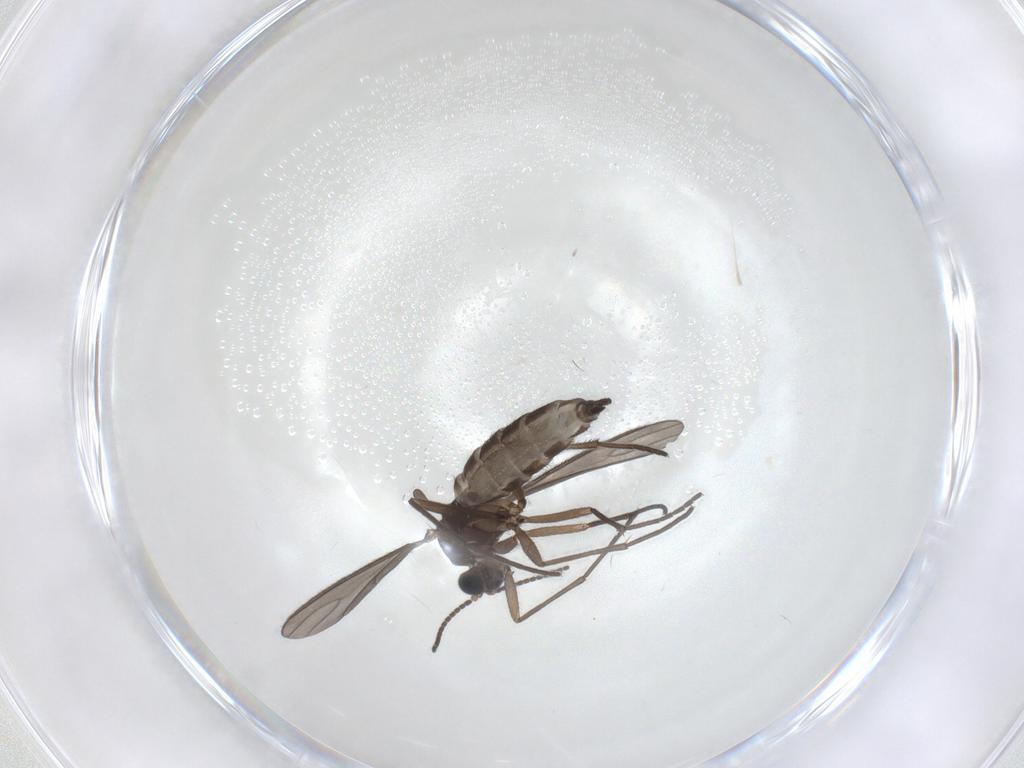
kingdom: Animalia
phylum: Arthropoda
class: Insecta
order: Diptera
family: Sciaridae
